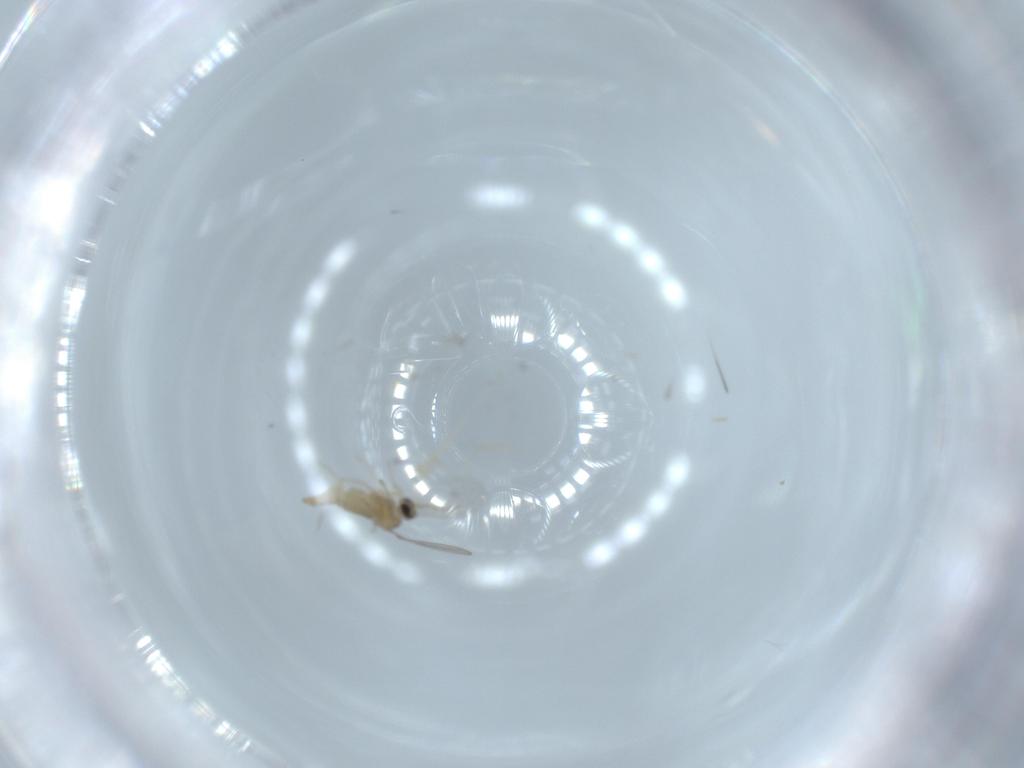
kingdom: Animalia
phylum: Arthropoda
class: Insecta
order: Diptera
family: Cecidomyiidae
